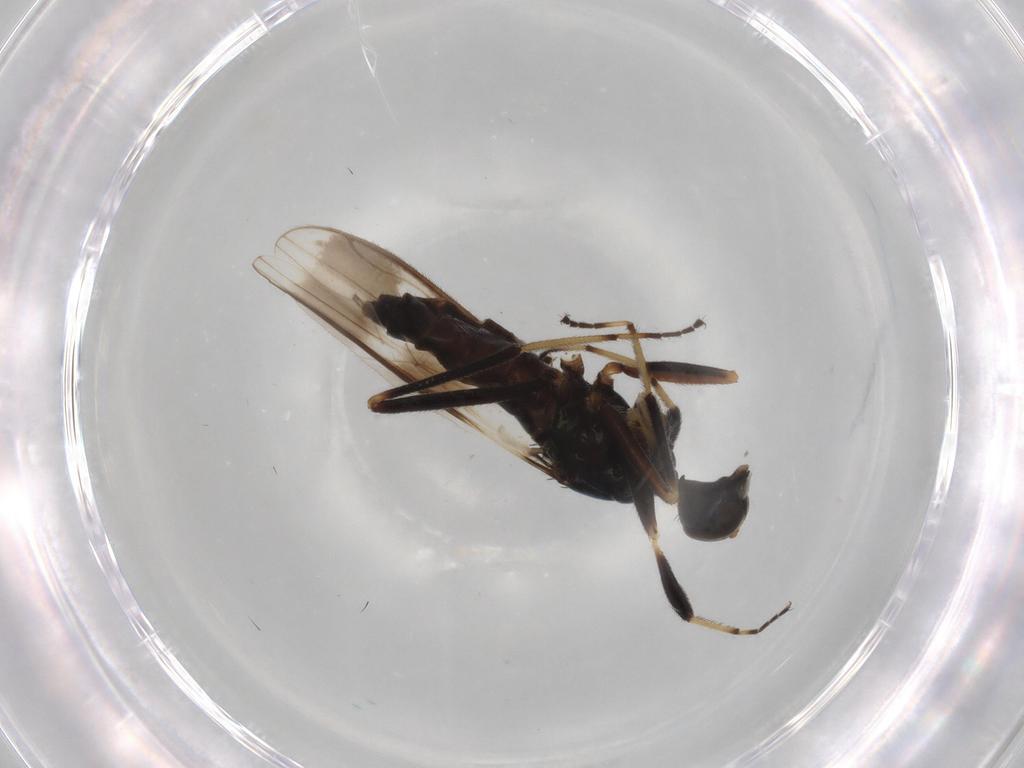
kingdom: Animalia
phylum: Arthropoda
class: Insecta
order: Diptera
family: Hybotidae
